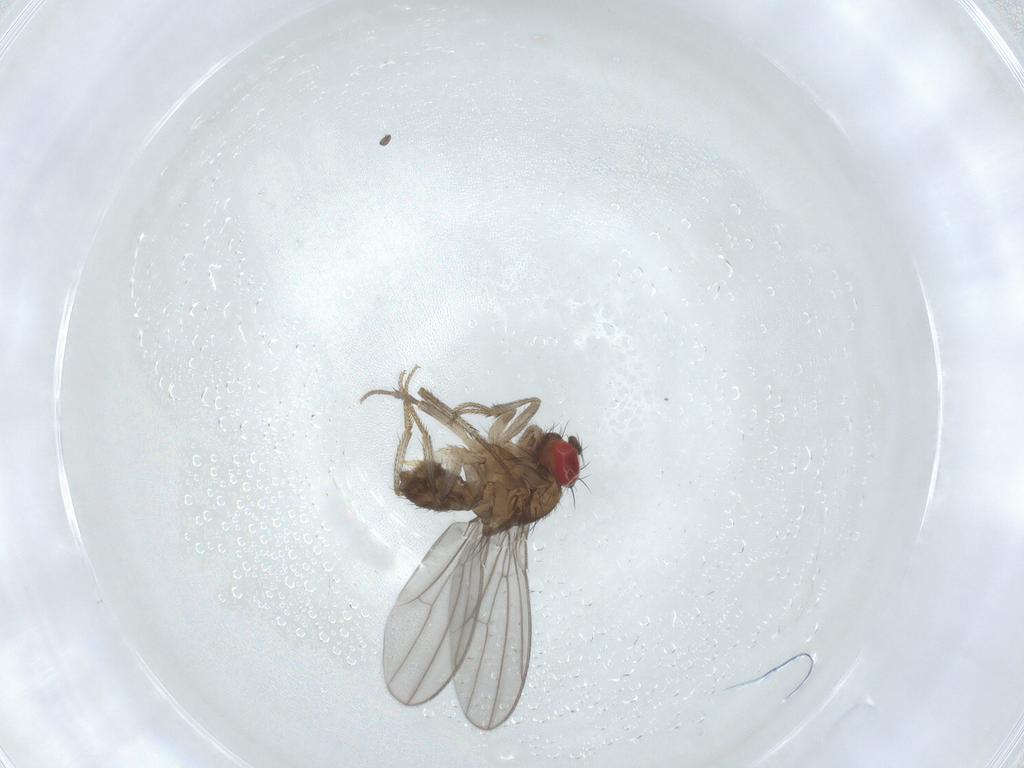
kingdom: Animalia
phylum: Arthropoda
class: Insecta
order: Diptera
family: Drosophilidae
